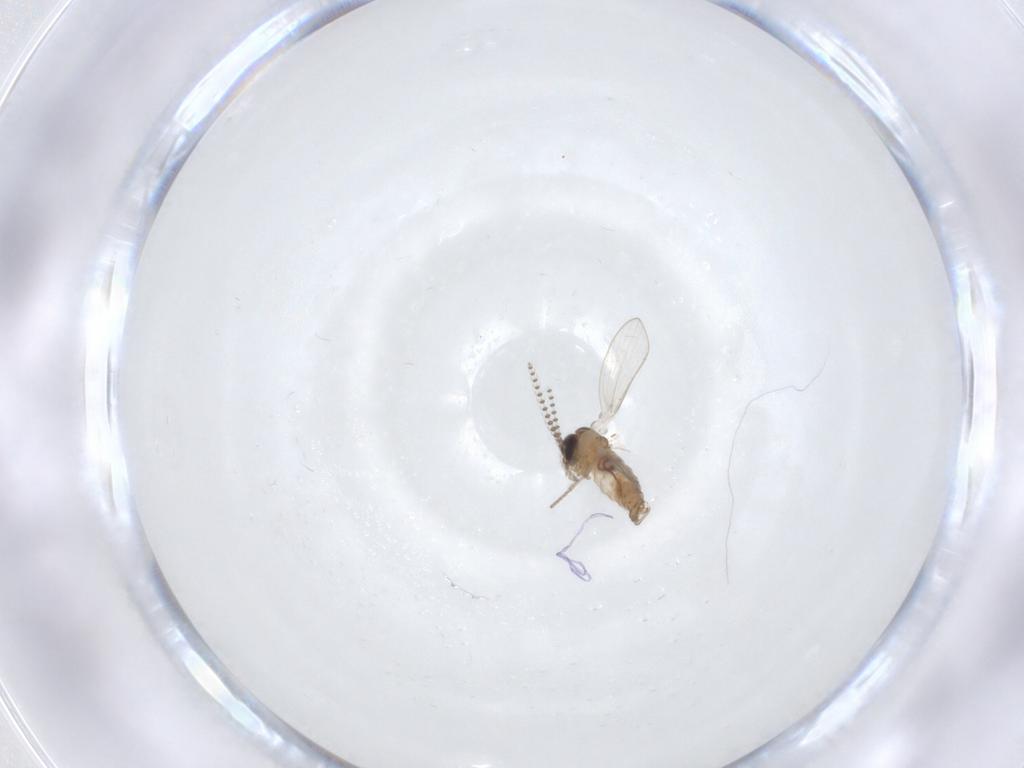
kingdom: Animalia
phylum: Arthropoda
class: Insecta
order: Diptera
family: Psychodidae
